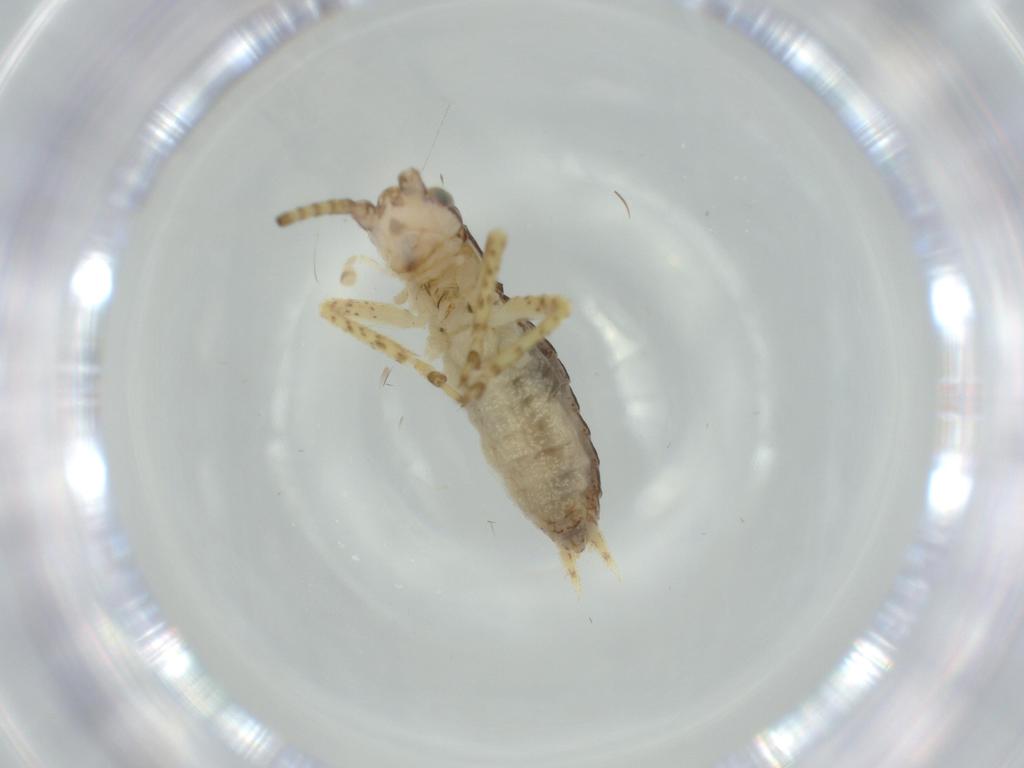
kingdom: Animalia
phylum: Arthropoda
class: Insecta
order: Orthoptera
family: Gryllidae
